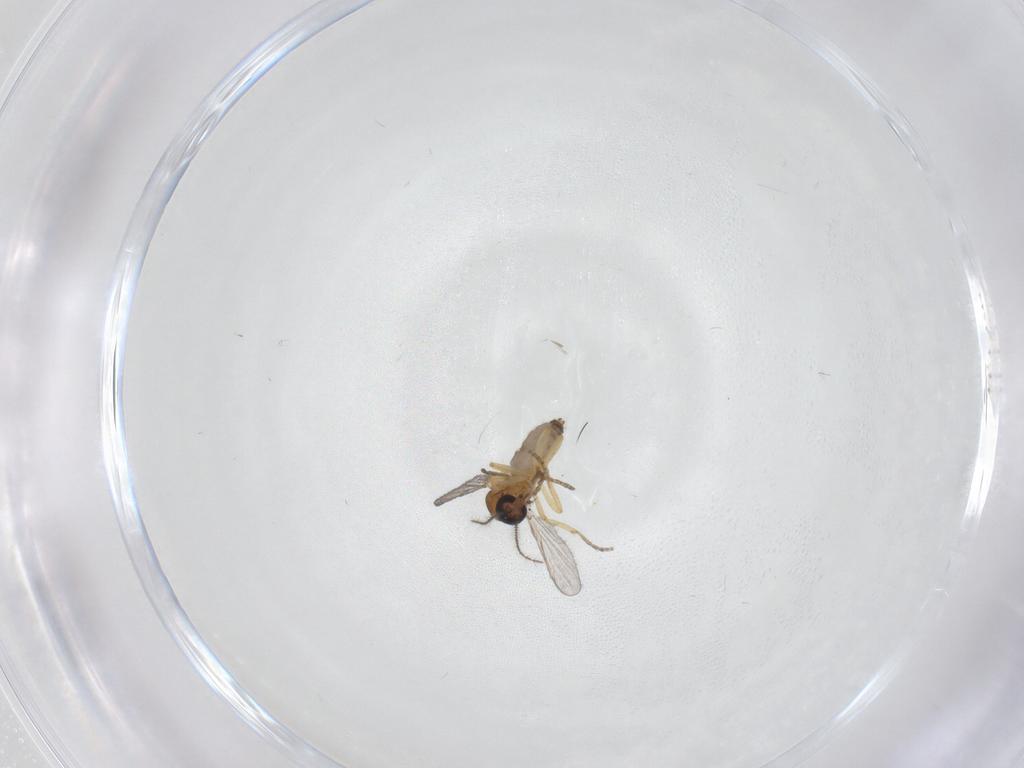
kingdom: Animalia
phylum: Arthropoda
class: Insecta
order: Diptera
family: Ceratopogonidae
